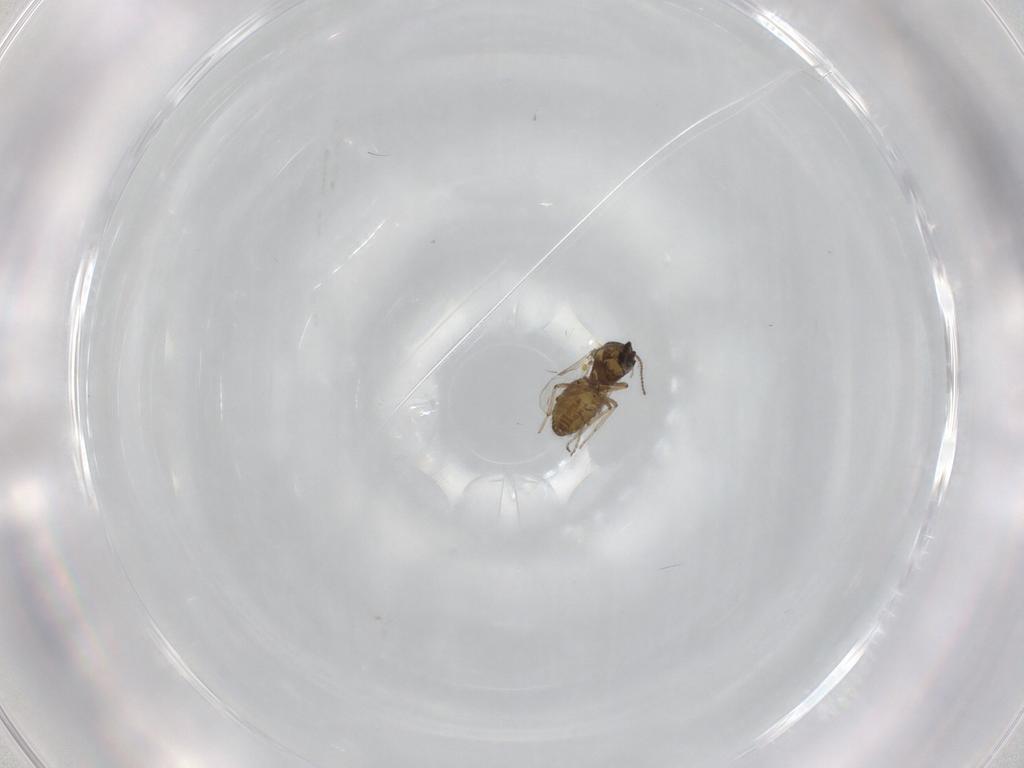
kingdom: Animalia
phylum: Arthropoda
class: Insecta
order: Diptera
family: Ceratopogonidae
